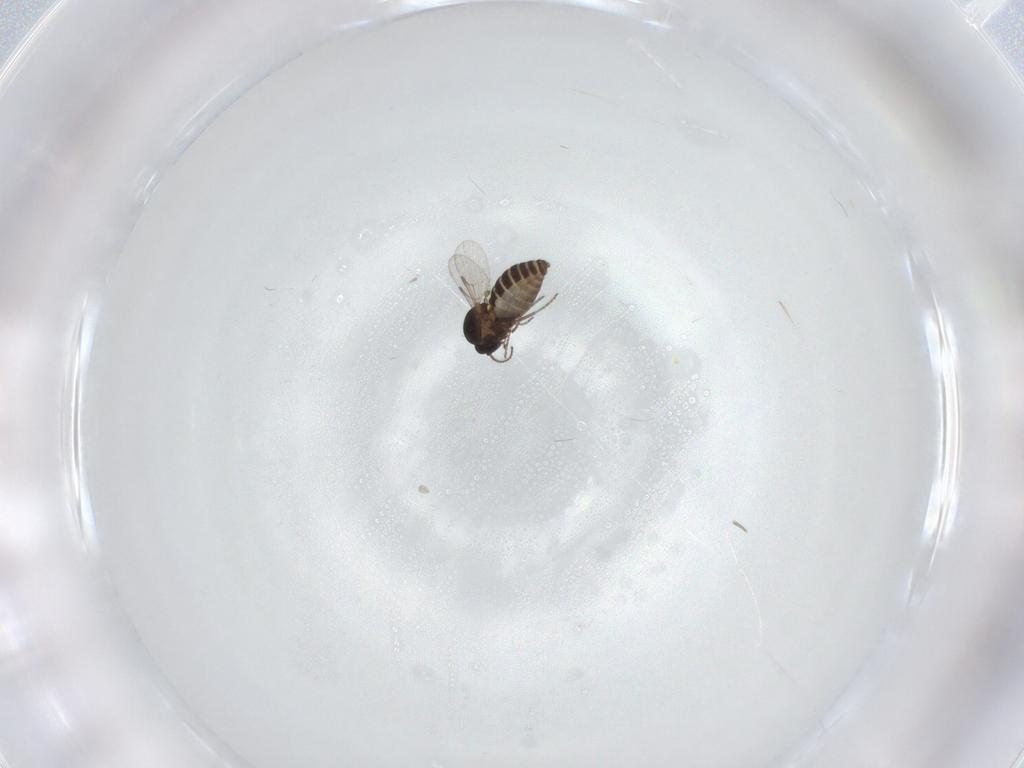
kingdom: Animalia
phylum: Arthropoda
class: Insecta
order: Diptera
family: Ceratopogonidae
